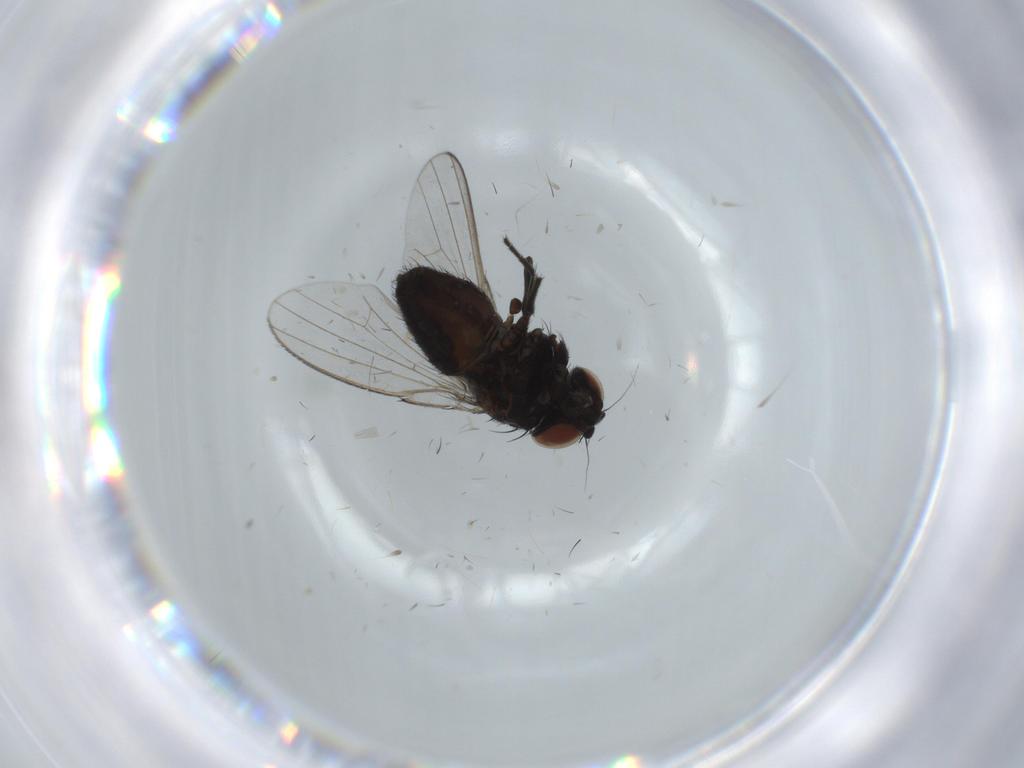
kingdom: Animalia
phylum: Arthropoda
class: Insecta
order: Diptera
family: Milichiidae
